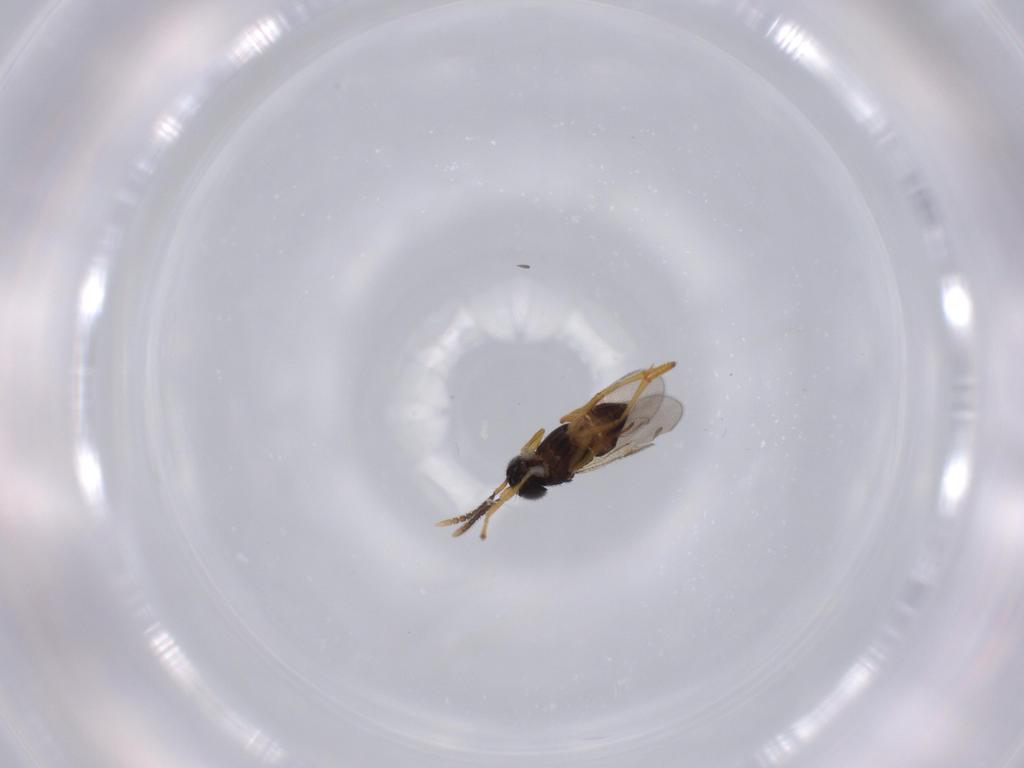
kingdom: Animalia
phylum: Arthropoda
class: Insecta
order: Hymenoptera
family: Encyrtidae
